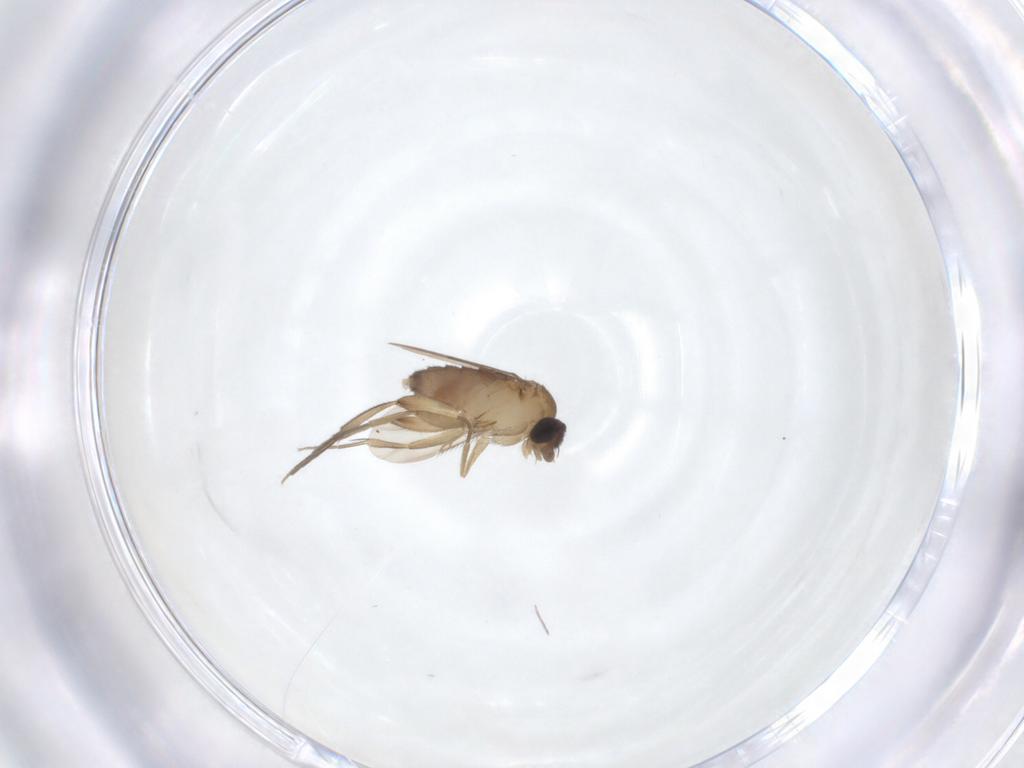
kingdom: Animalia
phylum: Arthropoda
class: Insecta
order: Diptera
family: Phoridae
